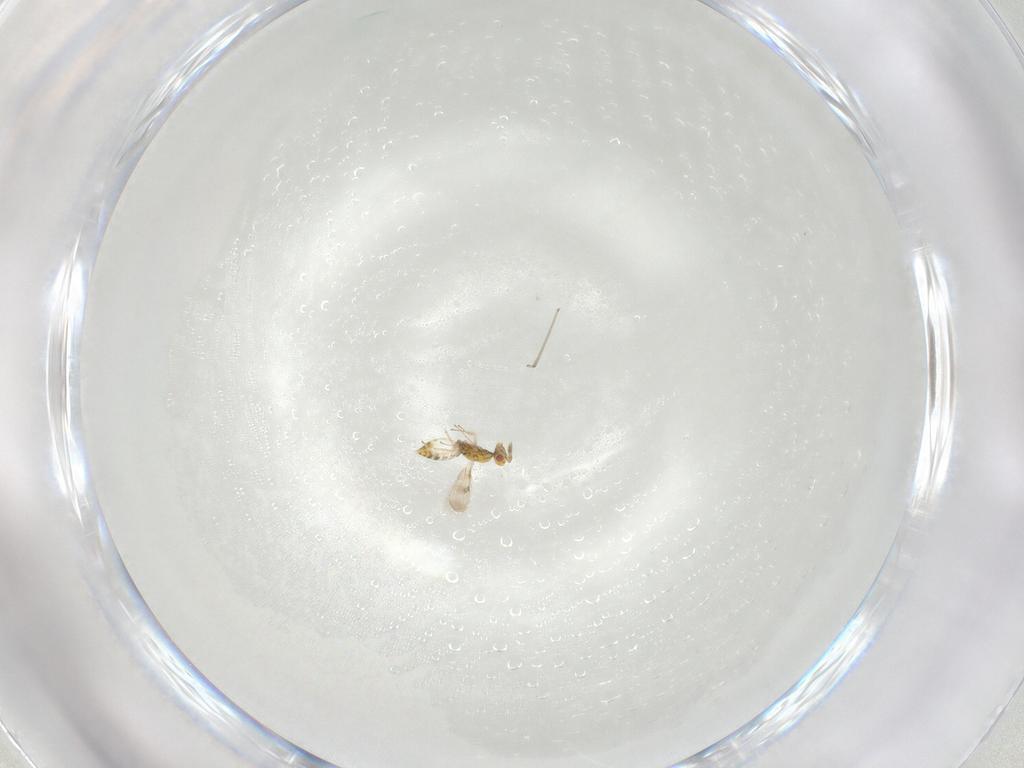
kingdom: Animalia
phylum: Arthropoda
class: Insecta
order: Hymenoptera
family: Eulophidae
